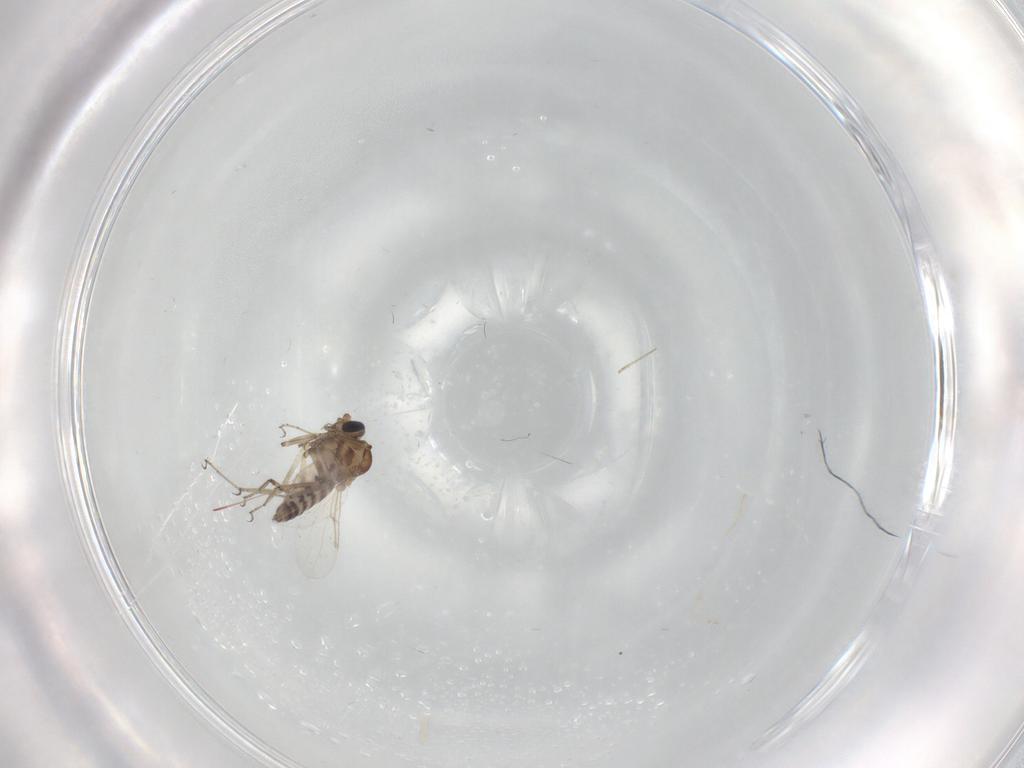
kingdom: Animalia
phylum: Arthropoda
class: Insecta
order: Diptera
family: Ceratopogonidae
